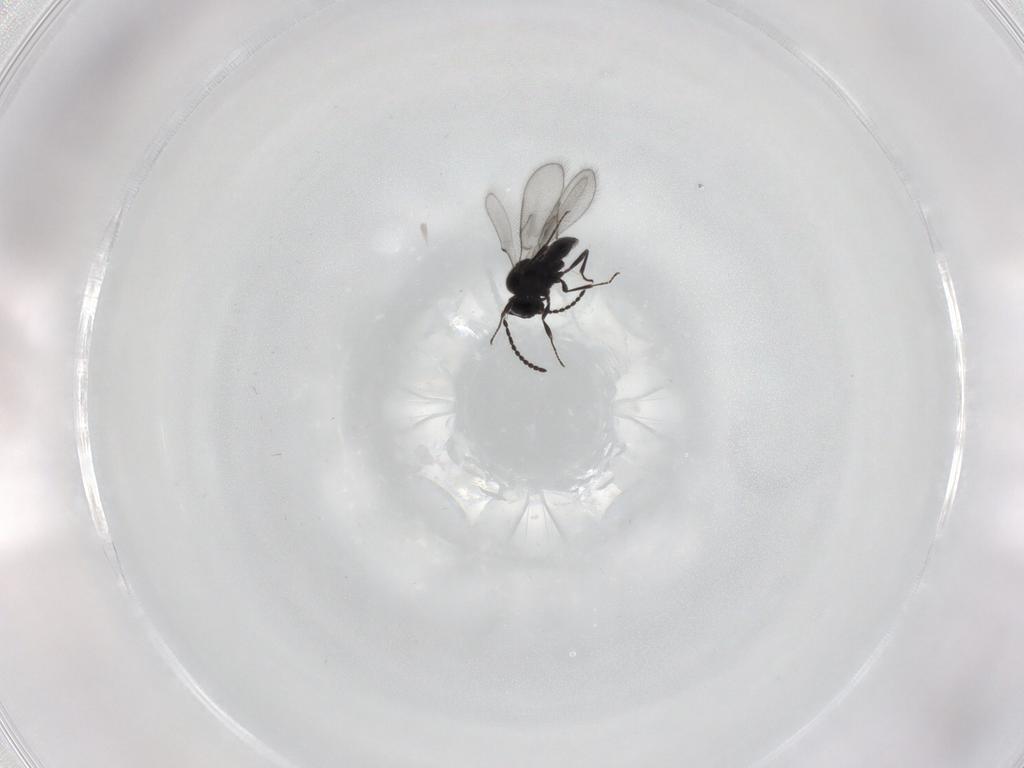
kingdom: Animalia
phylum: Arthropoda
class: Insecta
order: Hymenoptera
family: Scelionidae
